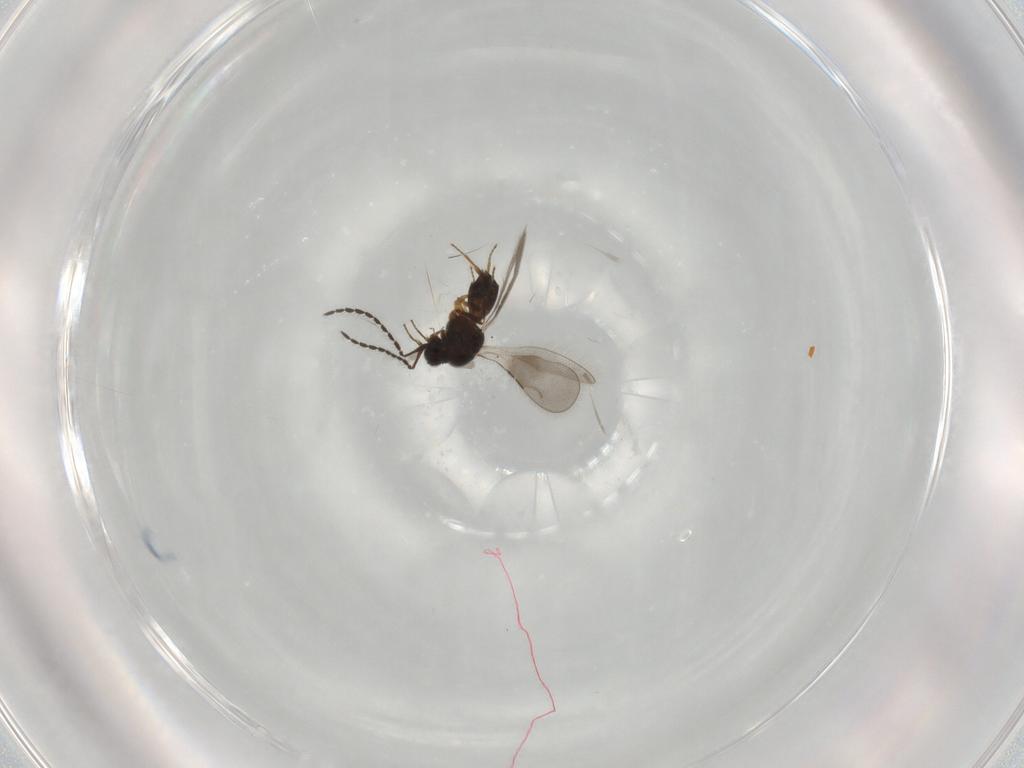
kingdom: Animalia
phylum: Arthropoda
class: Insecta
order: Hymenoptera
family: Ceraphronidae
